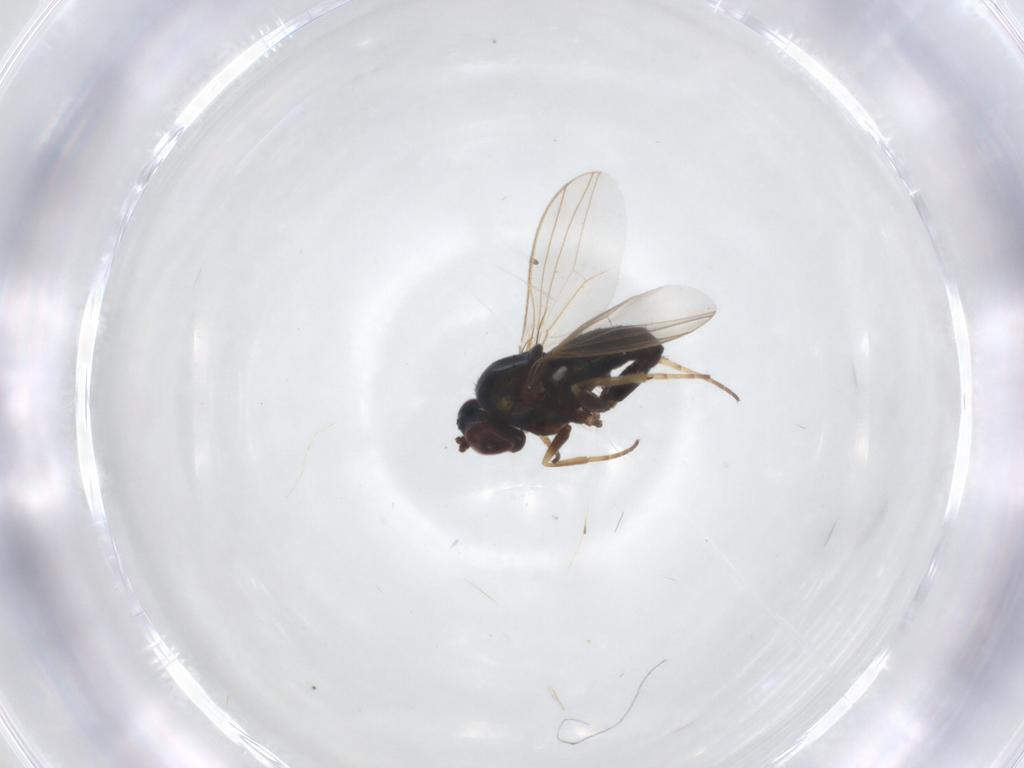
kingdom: Animalia
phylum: Arthropoda
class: Insecta
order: Diptera
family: Dolichopodidae
